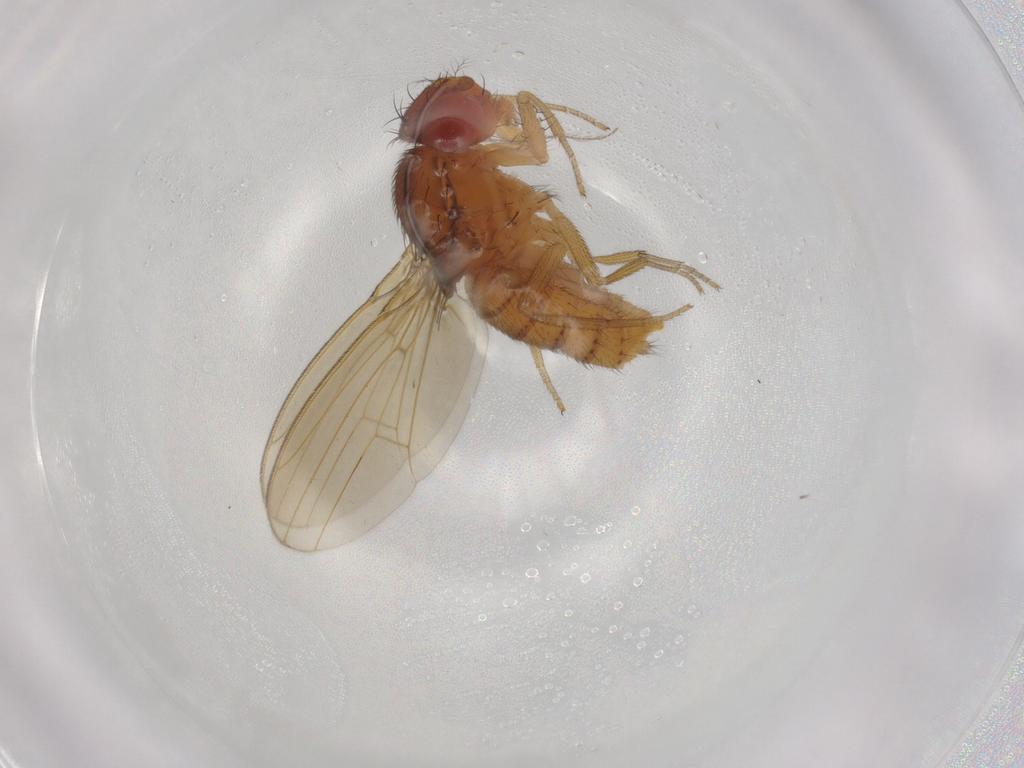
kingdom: Animalia
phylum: Arthropoda
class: Insecta
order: Diptera
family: Drosophilidae
